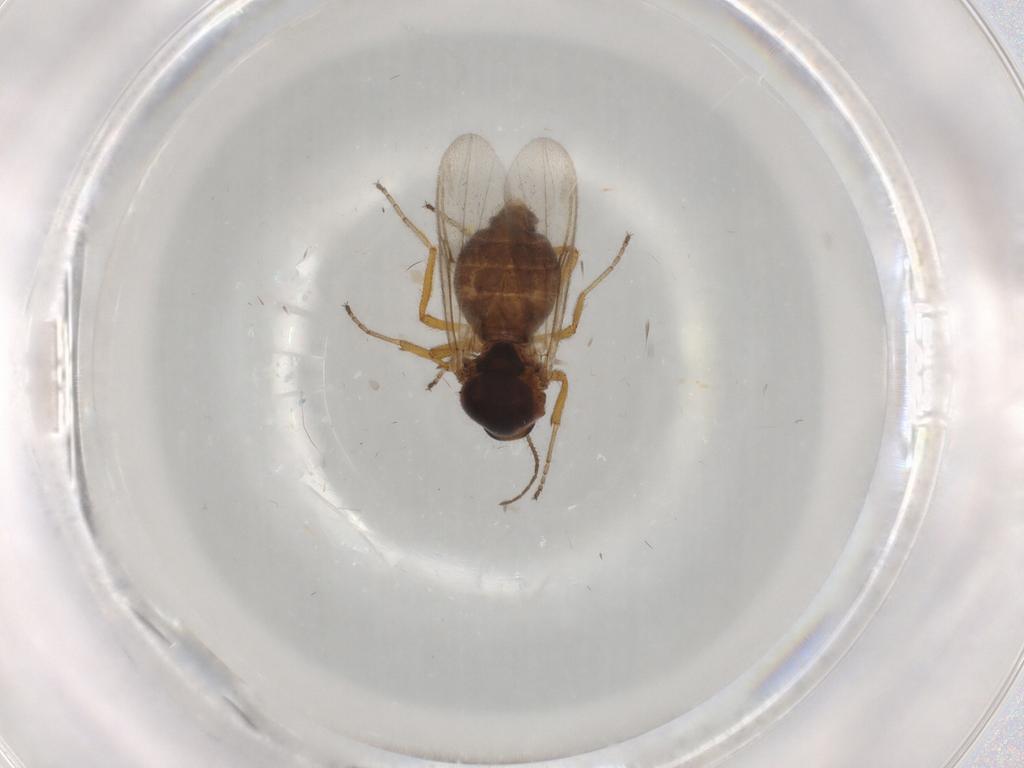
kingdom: Animalia
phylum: Arthropoda
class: Insecta
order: Diptera
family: Ceratopogonidae
